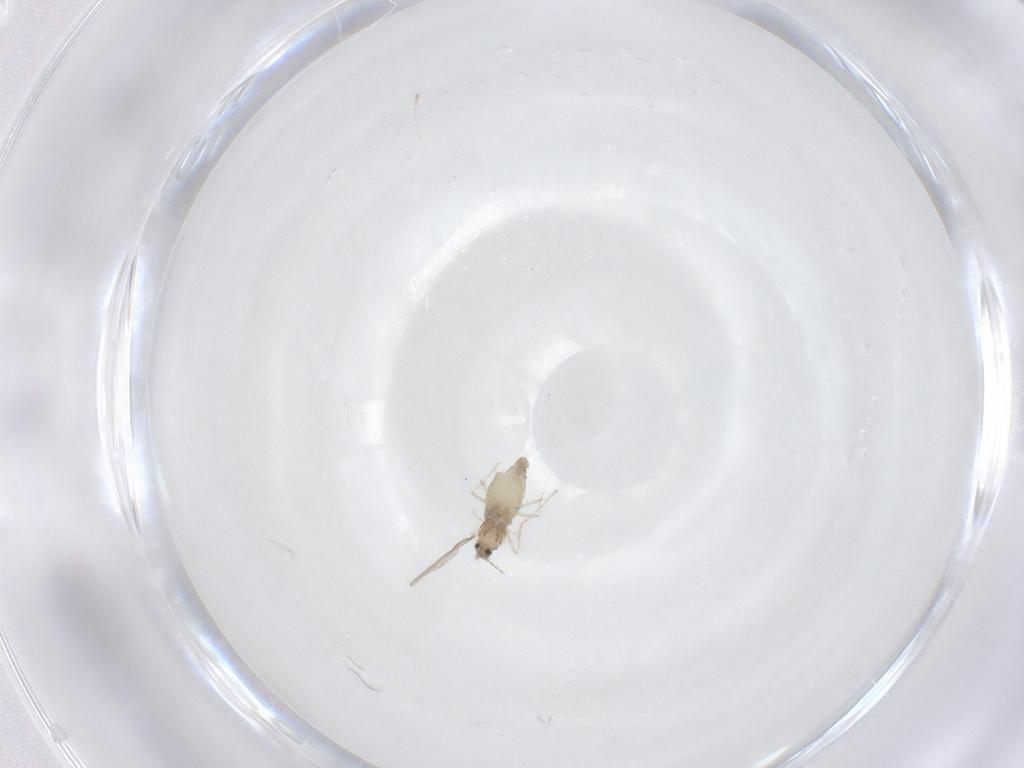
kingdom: Animalia
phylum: Arthropoda
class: Insecta
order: Diptera
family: Cecidomyiidae
